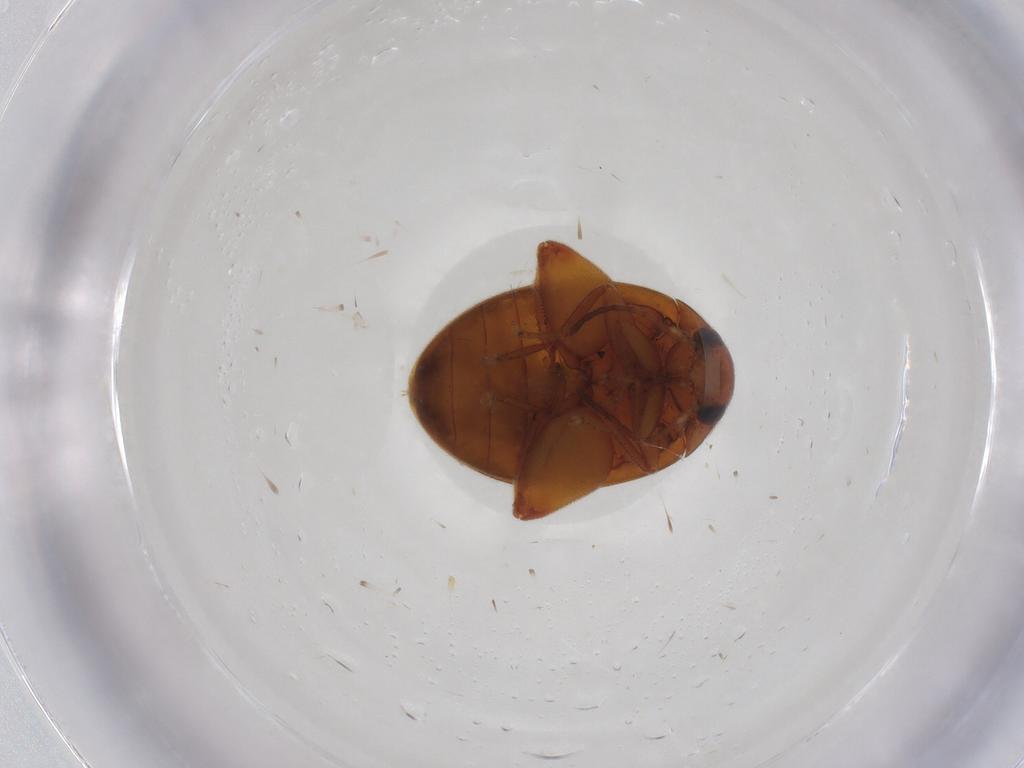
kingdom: Animalia
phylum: Arthropoda
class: Insecta
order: Coleoptera
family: Scirtidae
